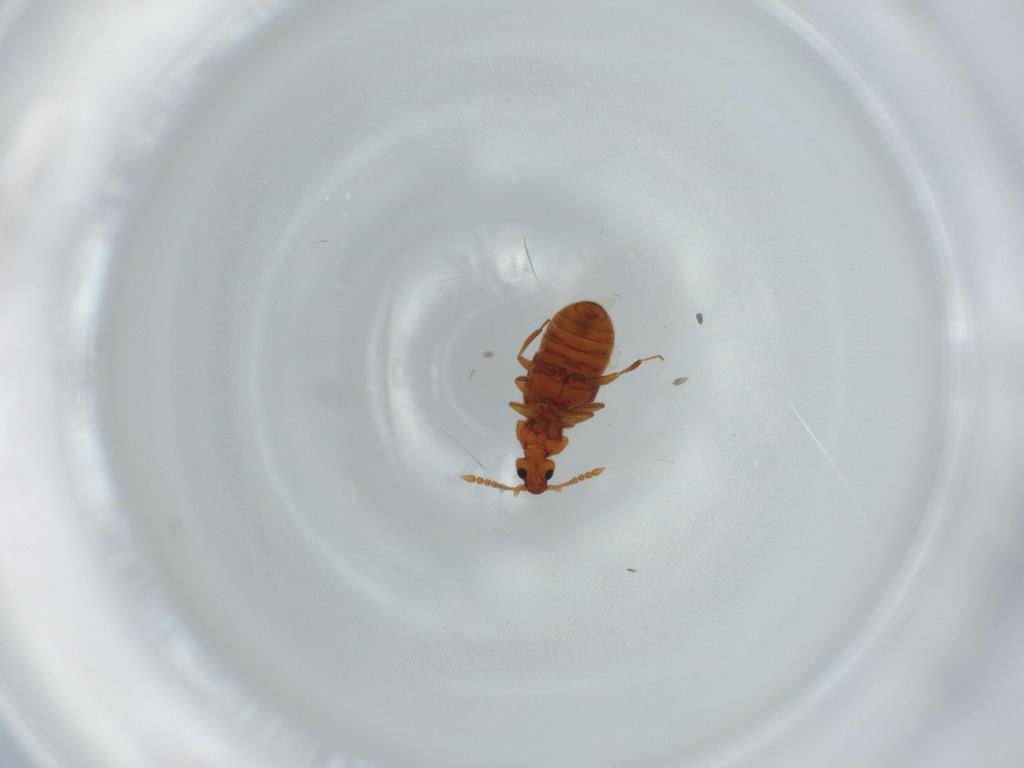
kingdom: Animalia
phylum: Arthropoda
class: Insecta
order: Coleoptera
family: Staphylinidae
